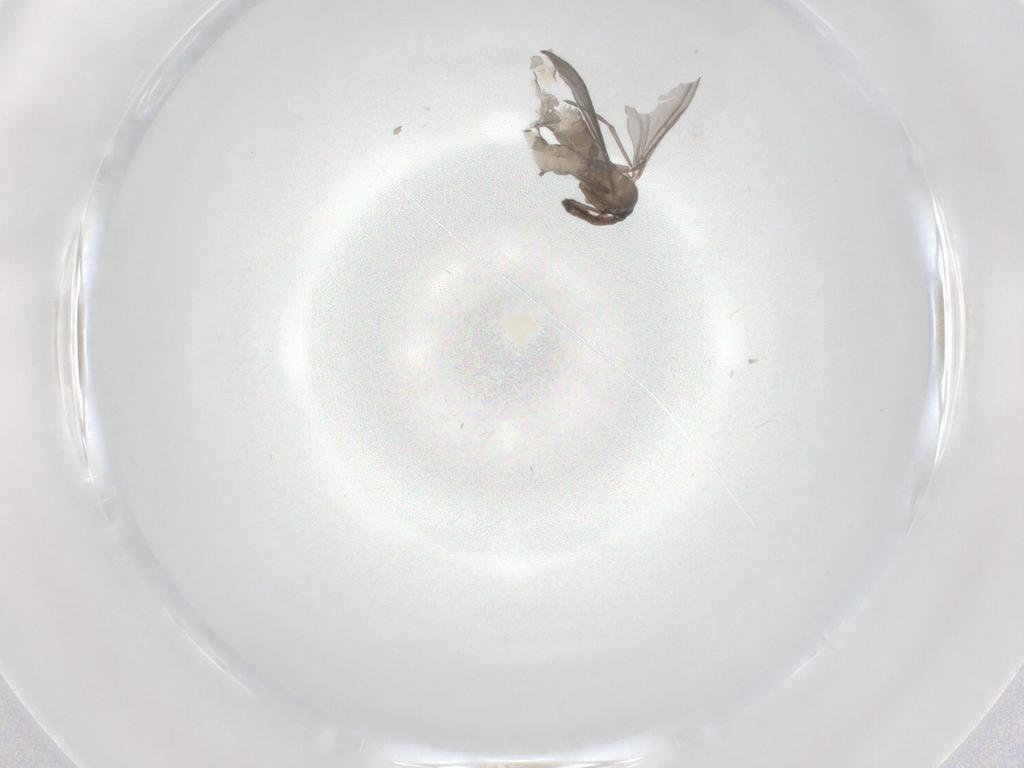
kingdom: Animalia
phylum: Arthropoda
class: Insecta
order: Diptera
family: Sciaridae
